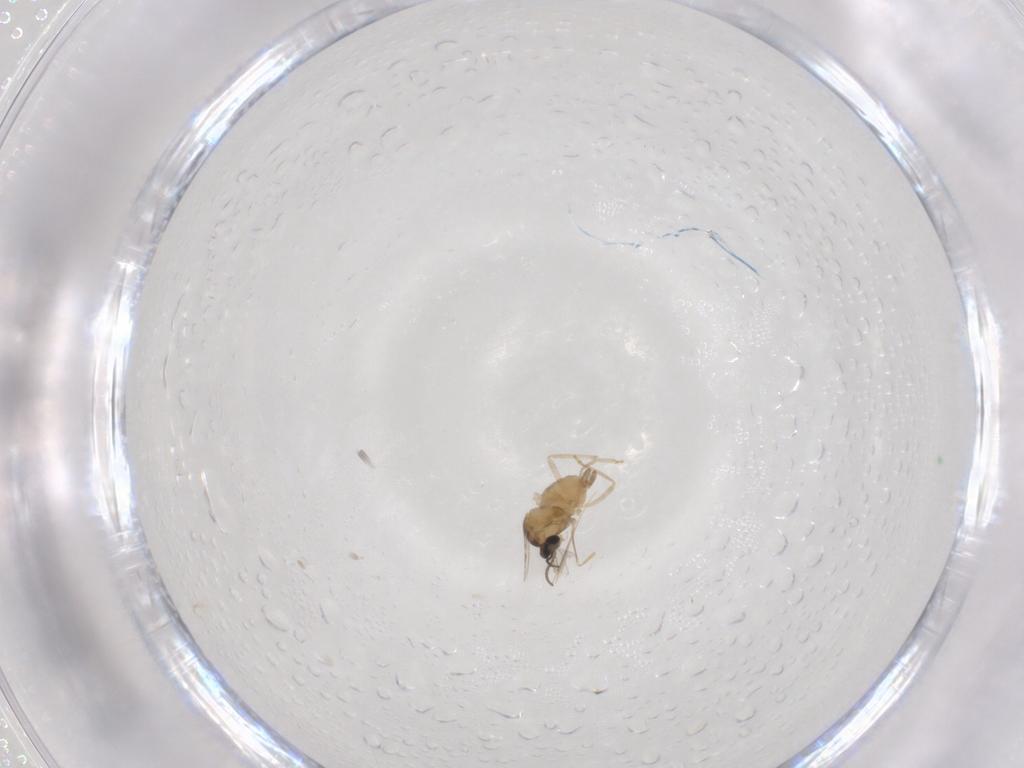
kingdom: Animalia
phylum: Arthropoda
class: Insecta
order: Diptera
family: Cecidomyiidae
